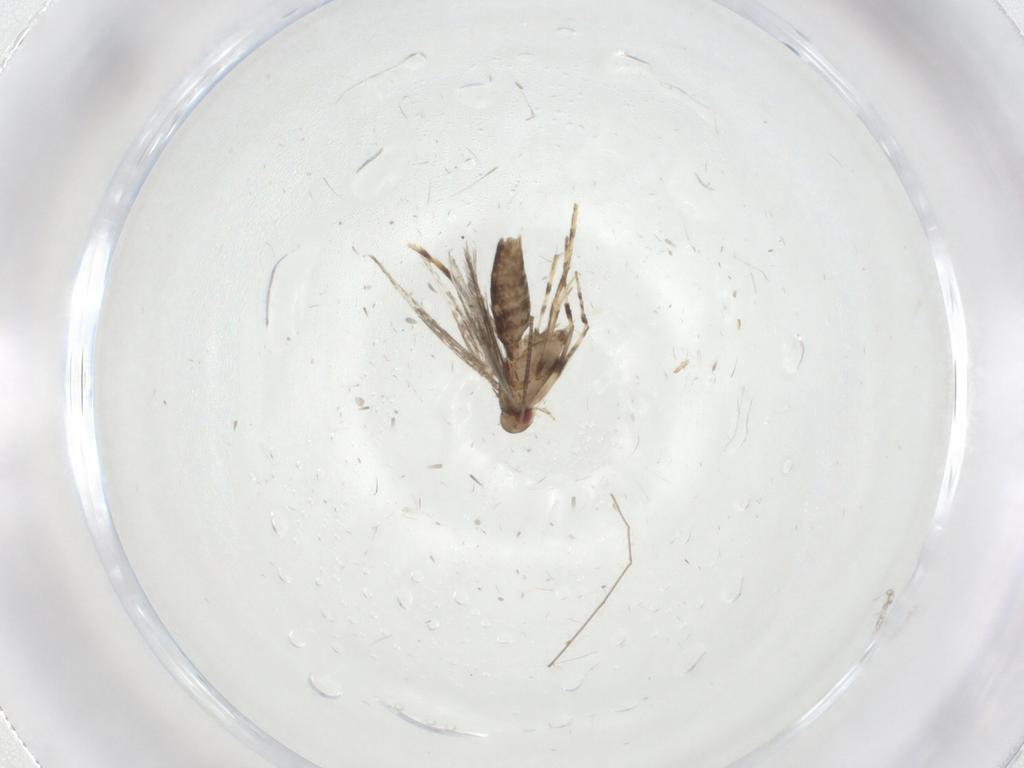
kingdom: Animalia
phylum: Arthropoda
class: Insecta
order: Lepidoptera
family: Gracillariidae
